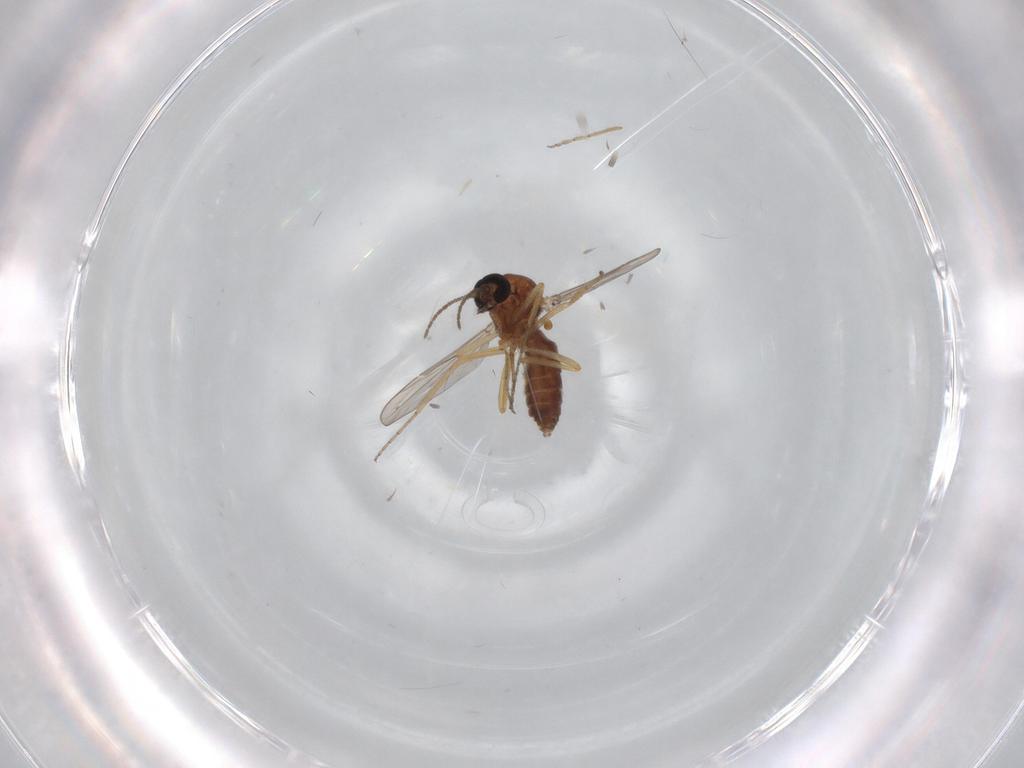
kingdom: Animalia
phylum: Arthropoda
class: Insecta
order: Diptera
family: Ceratopogonidae
